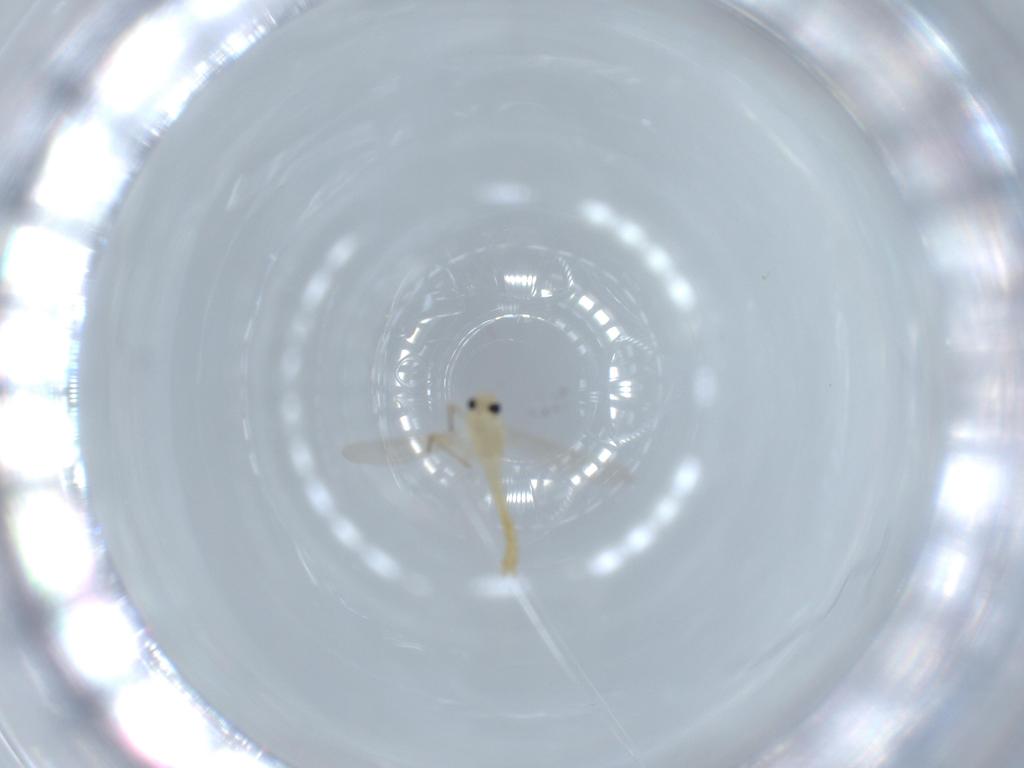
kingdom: Animalia
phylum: Arthropoda
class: Insecta
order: Diptera
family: Chironomidae
